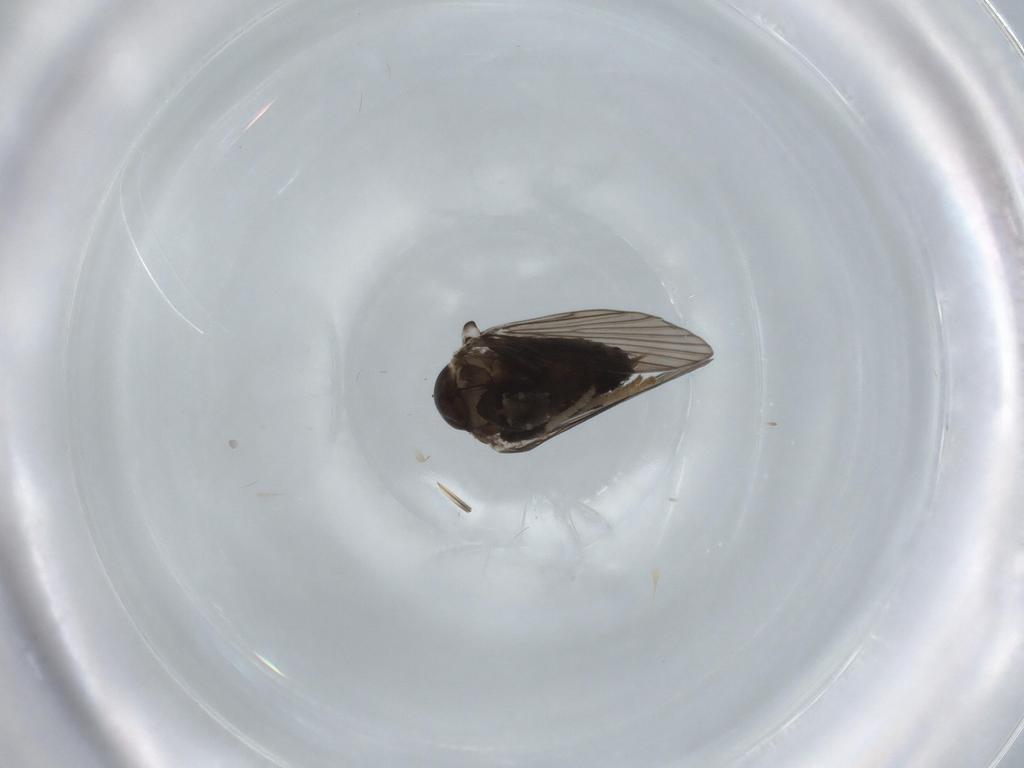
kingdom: Animalia
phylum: Arthropoda
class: Insecta
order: Diptera
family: Psychodidae
